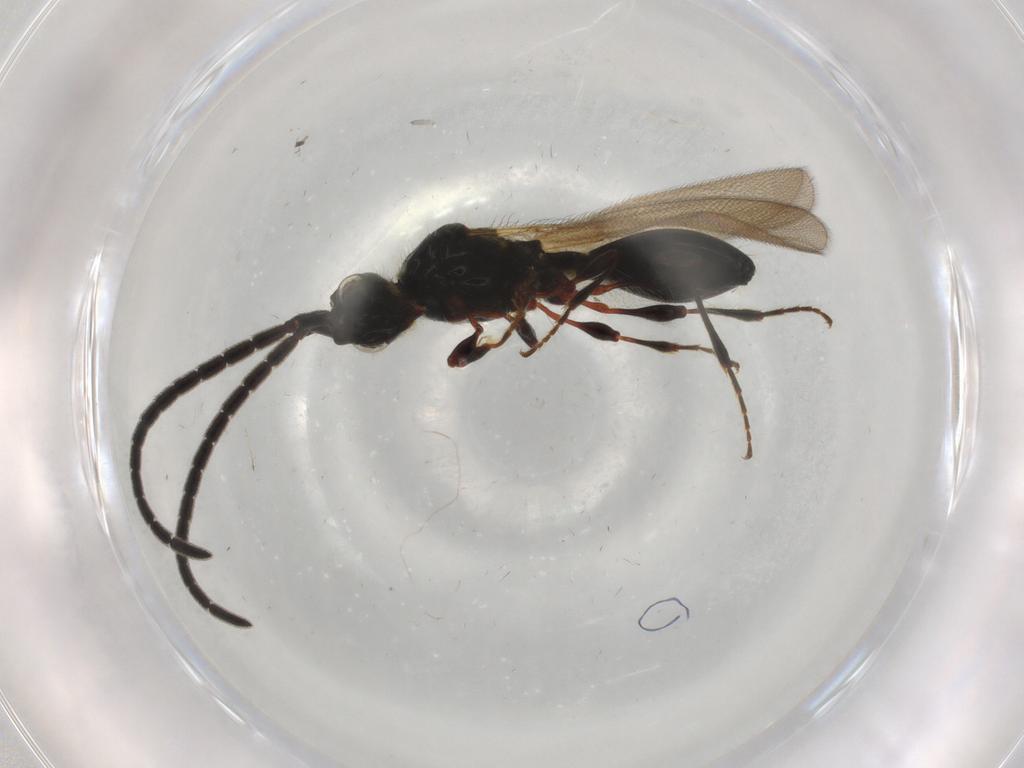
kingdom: Animalia
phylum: Arthropoda
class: Insecta
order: Hymenoptera
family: Diapriidae
